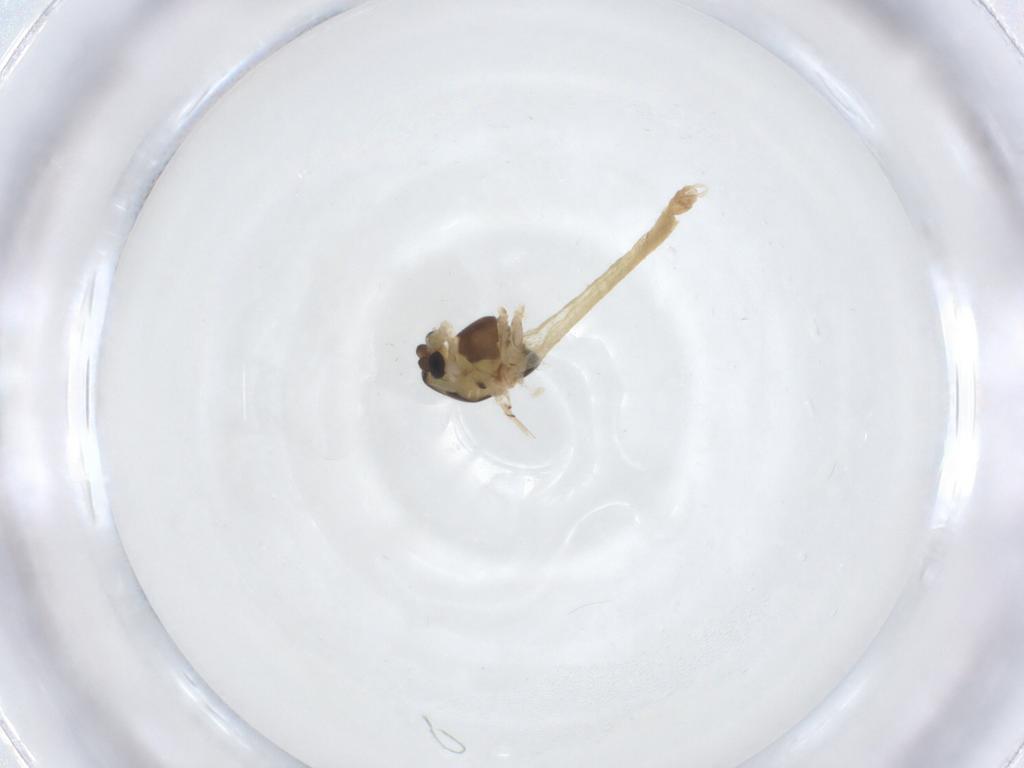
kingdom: Animalia
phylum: Arthropoda
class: Insecta
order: Diptera
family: Chironomidae
